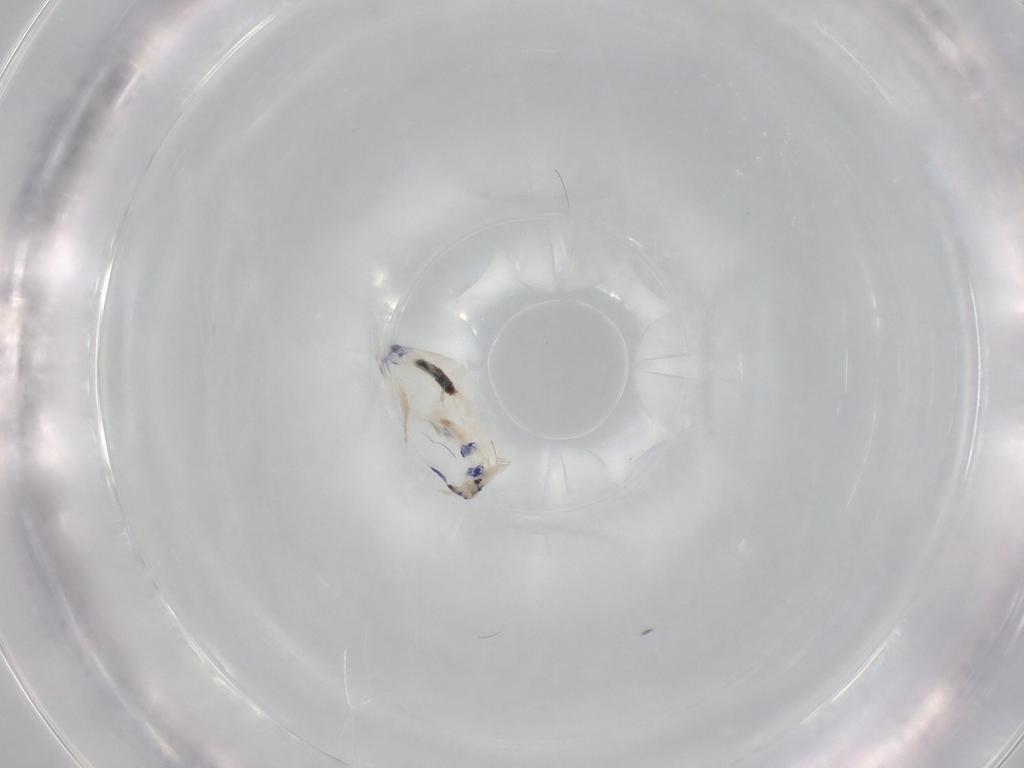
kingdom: Animalia
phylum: Arthropoda
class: Collembola
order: Entomobryomorpha
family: Entomobryidae
